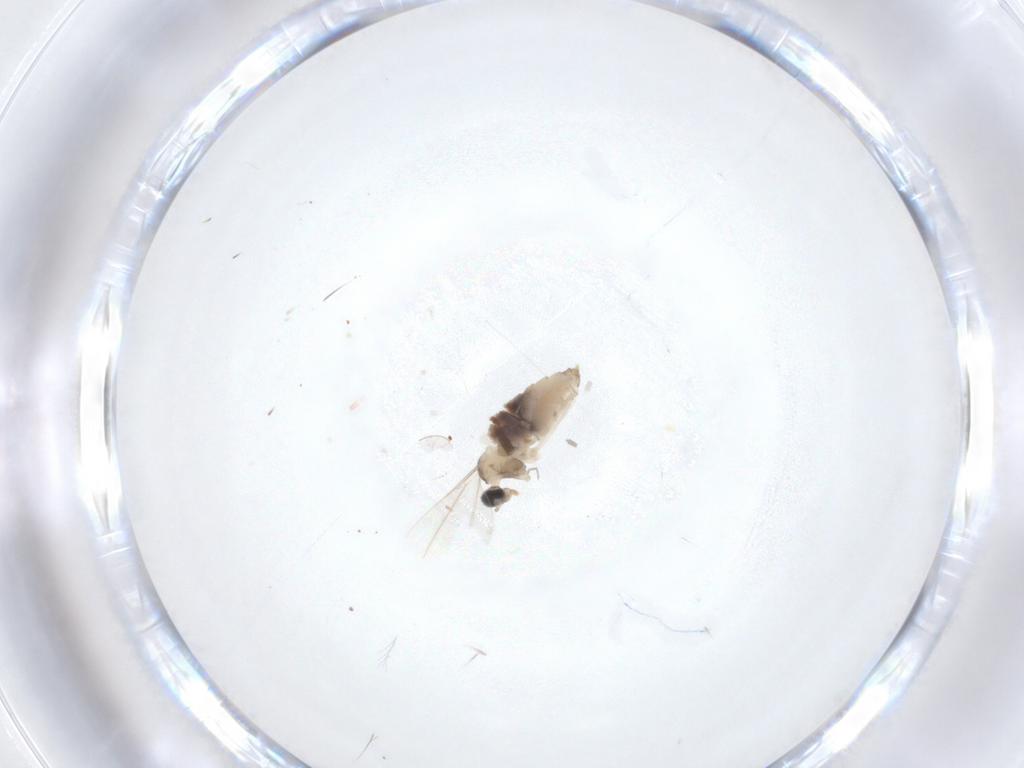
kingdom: Animalia
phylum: Arthropoda
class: Insecta
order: Diptera
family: Cecidomyiidae
